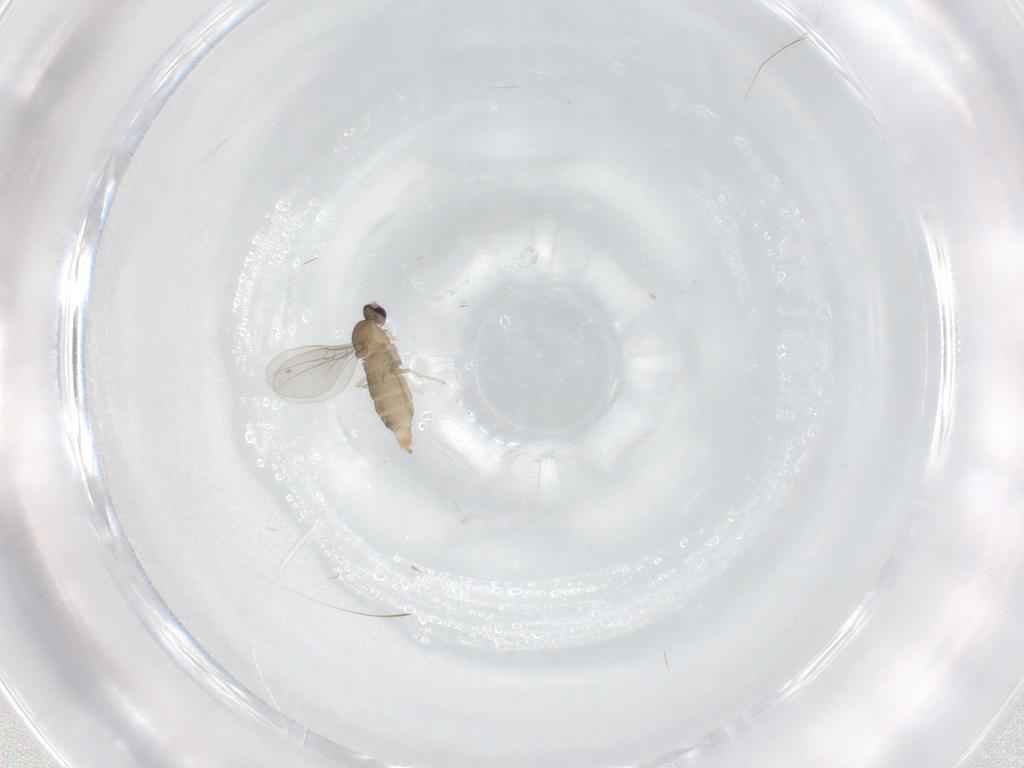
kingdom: Animalia
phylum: Arthropoda
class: Insecta
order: Diptera
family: Cecidomyiidae
